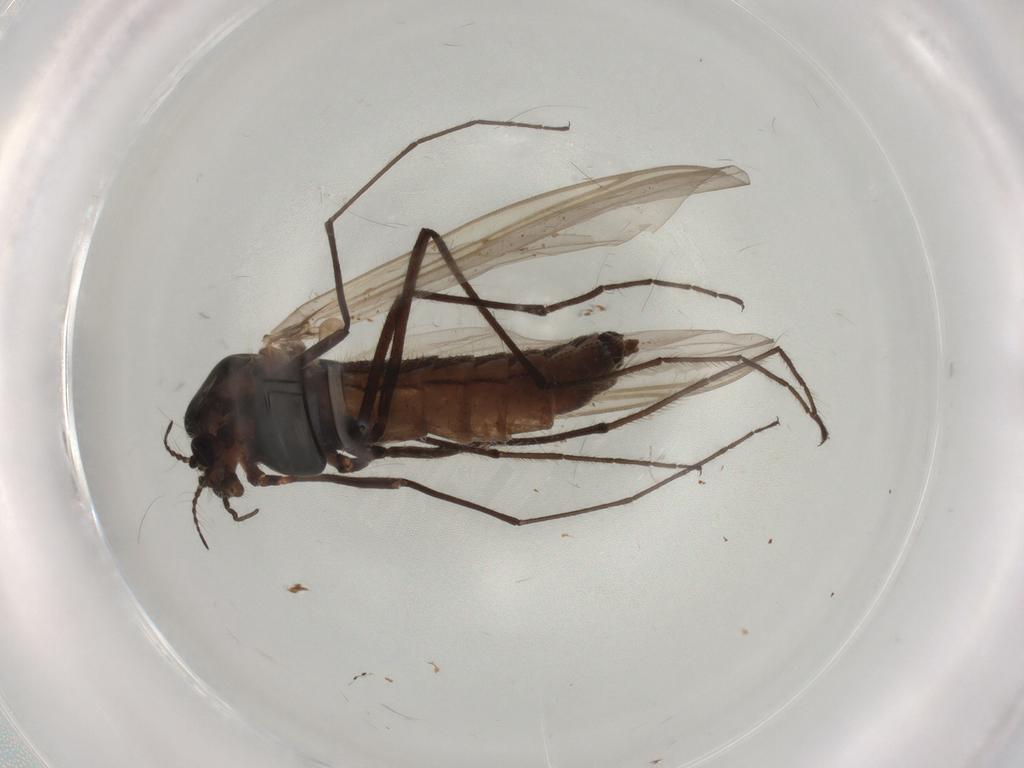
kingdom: Animalia
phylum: Arthropoda
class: Insecta
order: Diptera
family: Chironomidae
